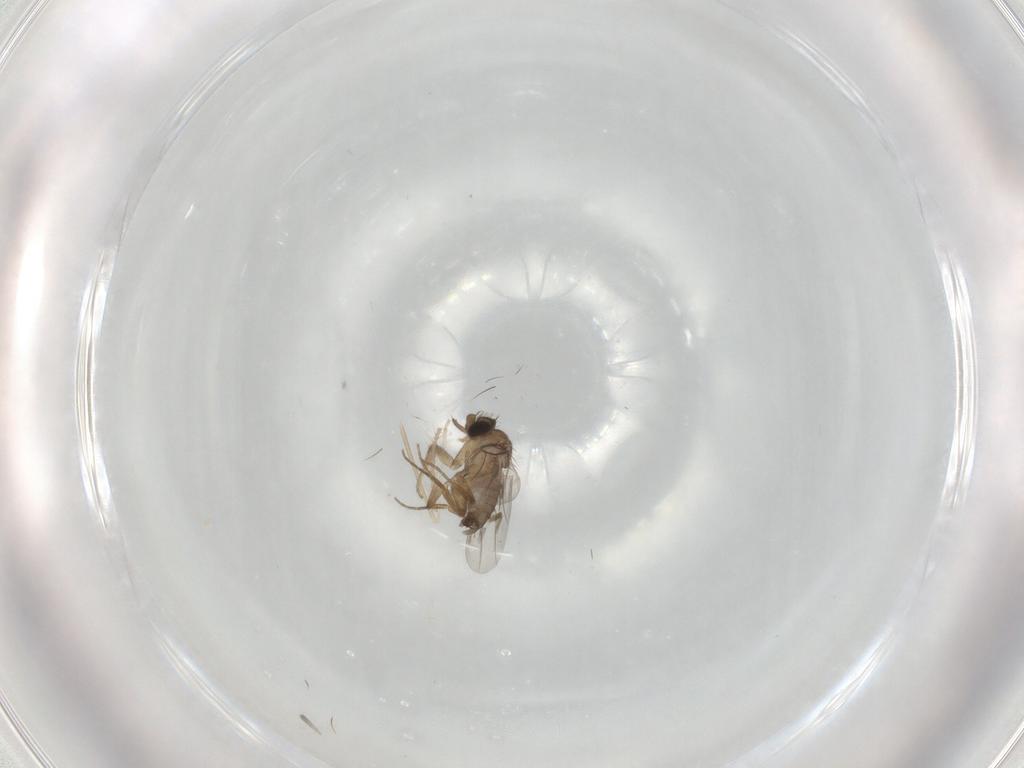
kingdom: Animalia
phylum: Arthropoda
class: Insecta
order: Diptera
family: Phoridae
